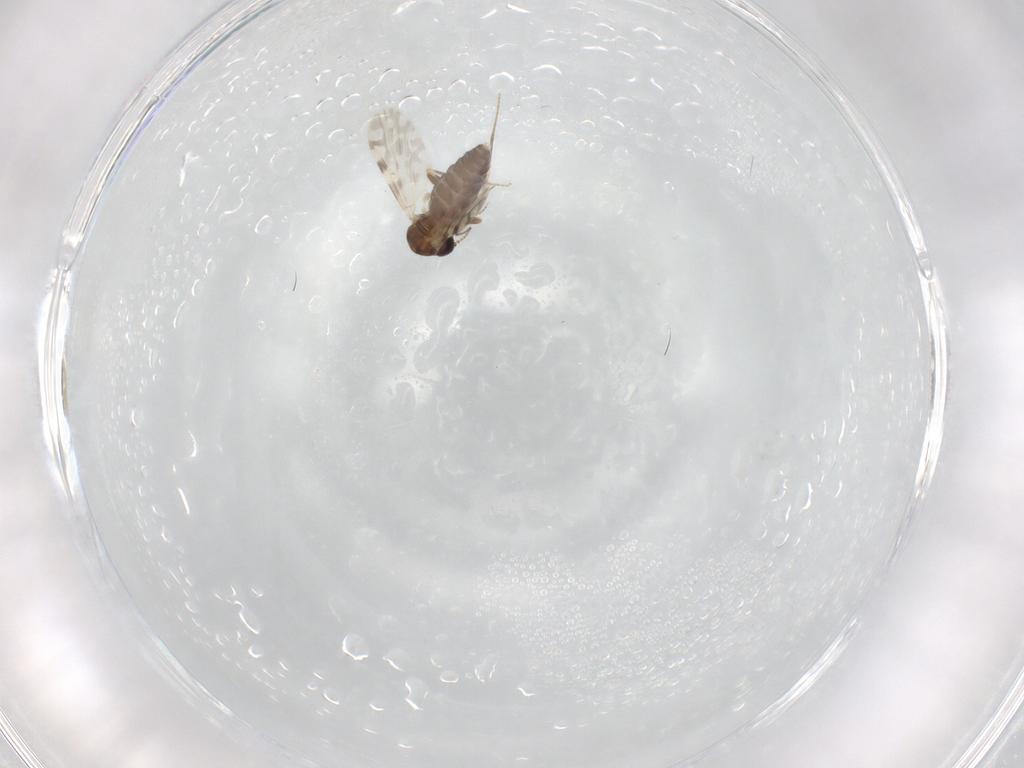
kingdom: Animalia
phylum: Arthropoda
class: Insecta
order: Diptera
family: Ceratopogonidae
